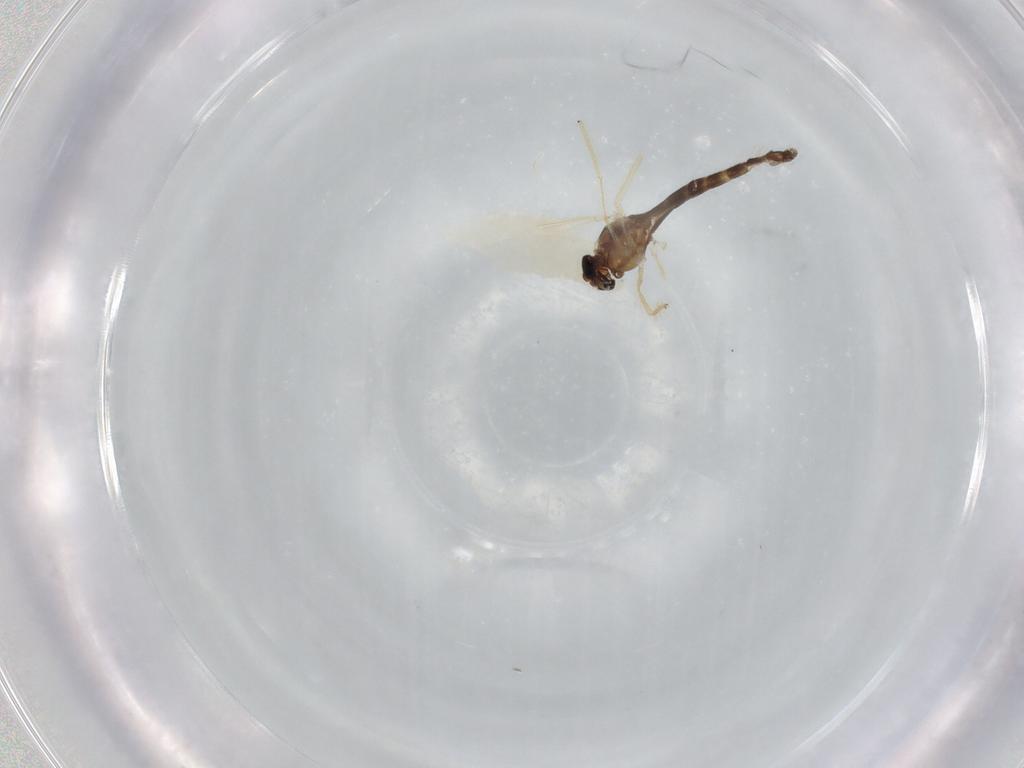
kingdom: Animalia
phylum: Arthropoda
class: Insecta
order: Diptera
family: Chironomidae
